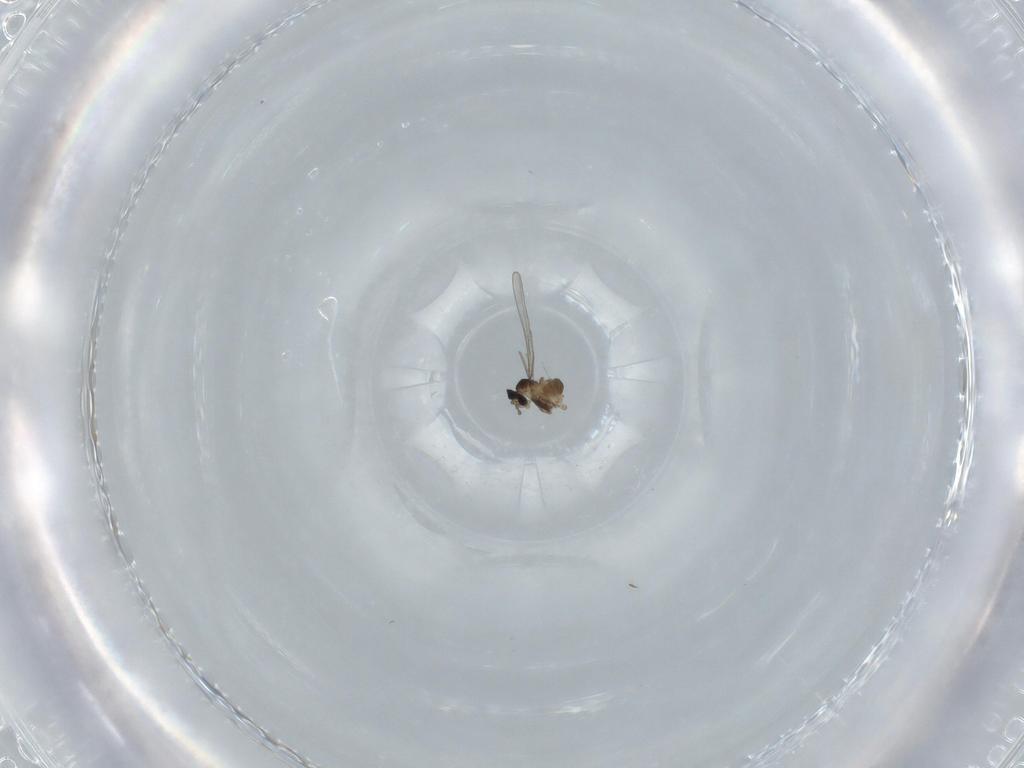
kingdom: Animalia
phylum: Arthropoda
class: Insecta
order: Diptera
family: Cecidomyiidae
